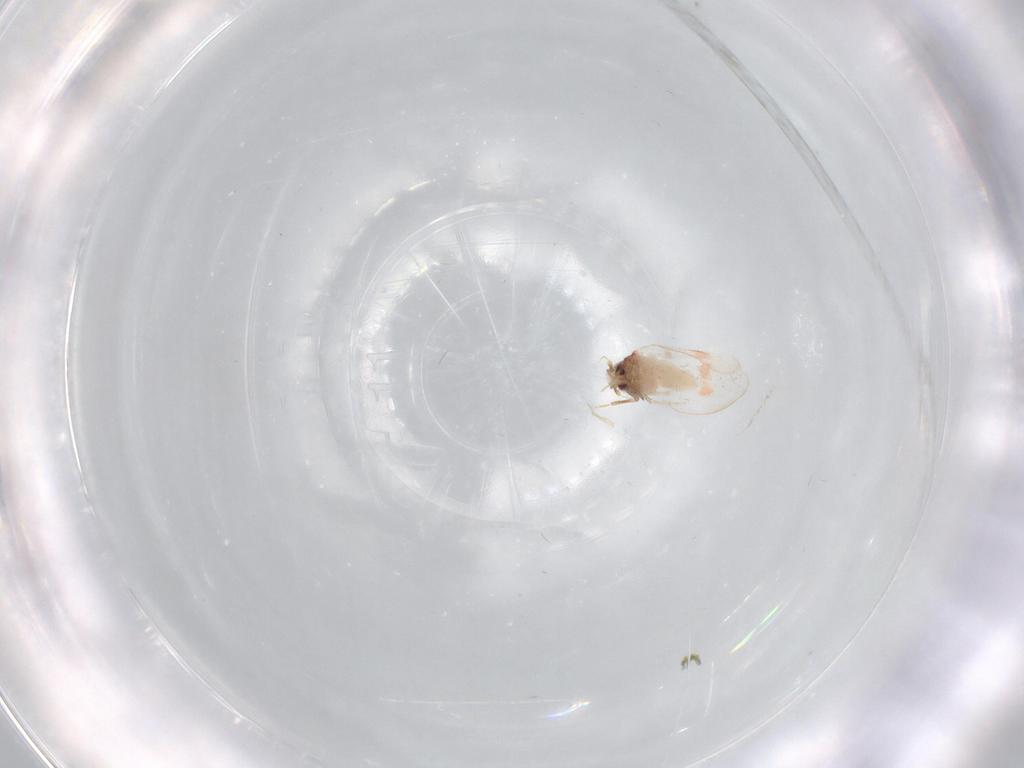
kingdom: Animalia
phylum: Arthropoda
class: Insecta
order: Hemiptera
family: Aleyrodidae
